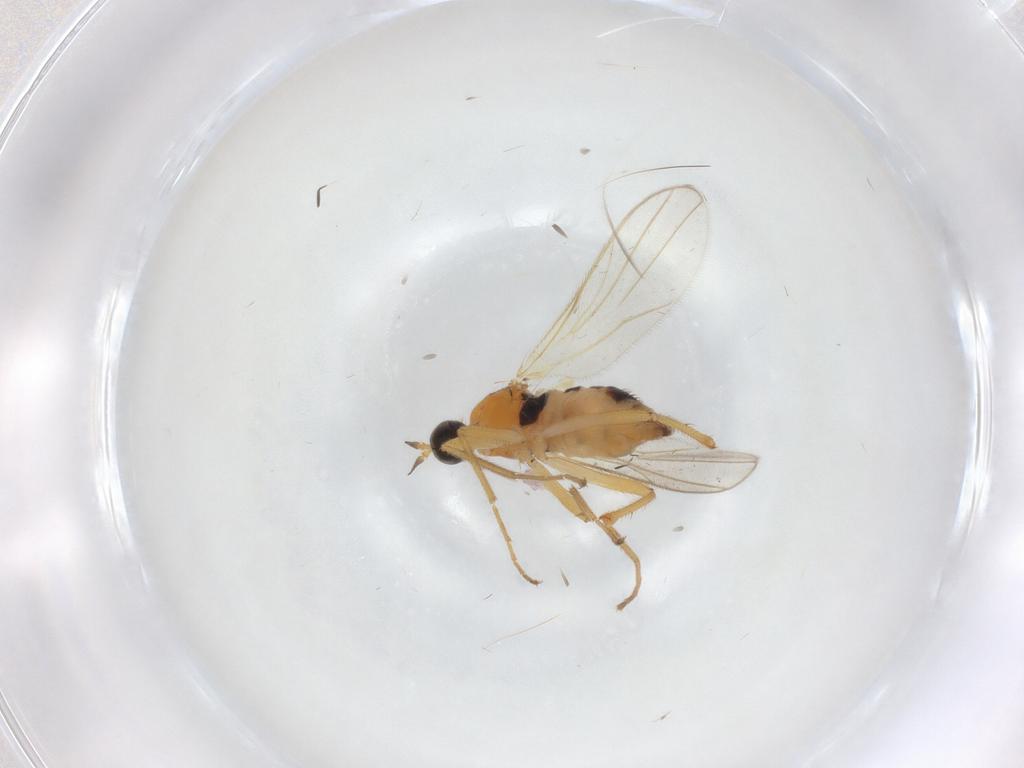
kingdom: Animalia
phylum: Arthropoda
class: Insecta
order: Diptera
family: Hybotidae
